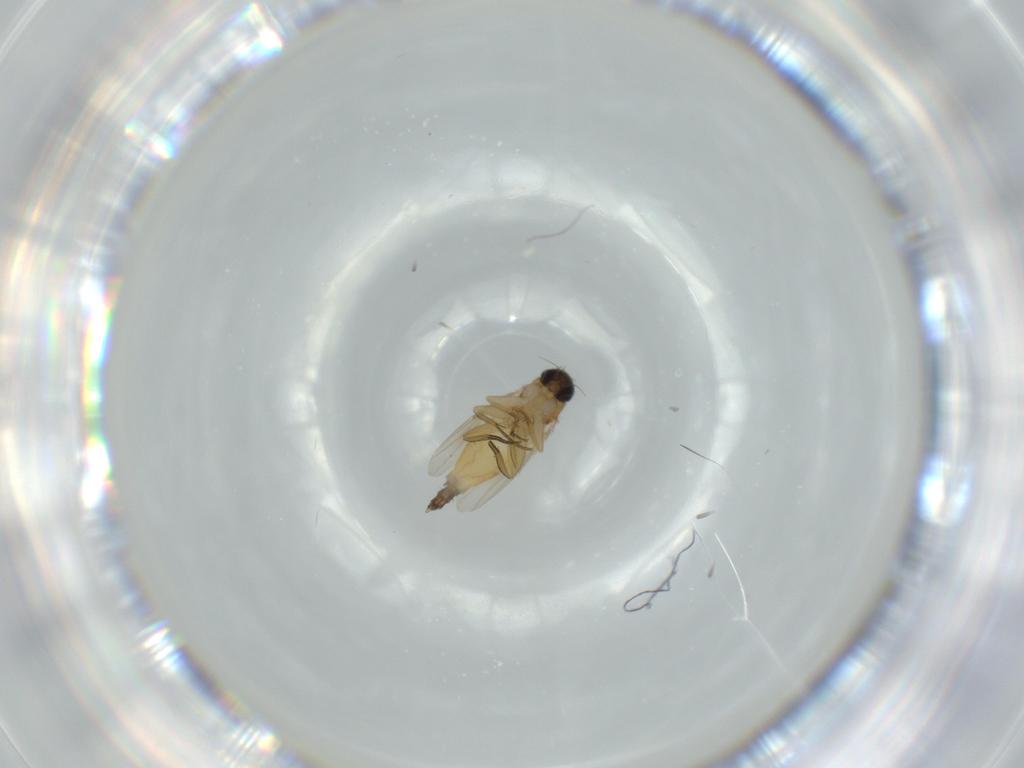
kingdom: Animalia
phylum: Arthropoda
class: Insecta
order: Diptera
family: Phoridae
